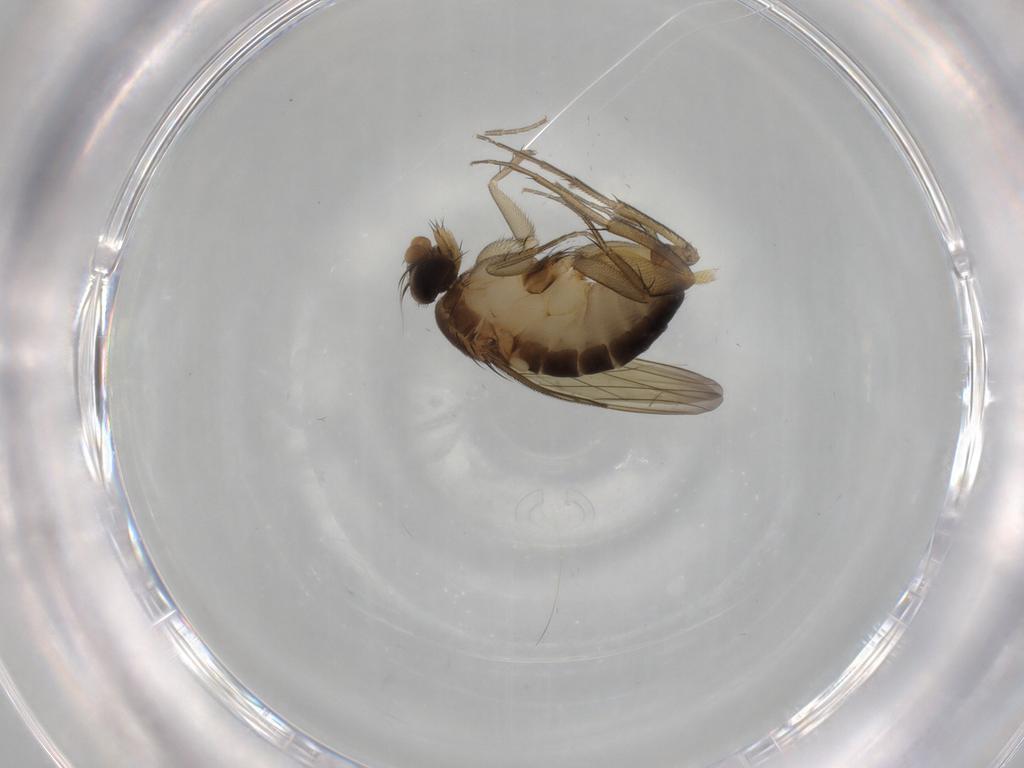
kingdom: Animalia
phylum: Arthropoda
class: Insecta
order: Diptera
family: Phoridae
